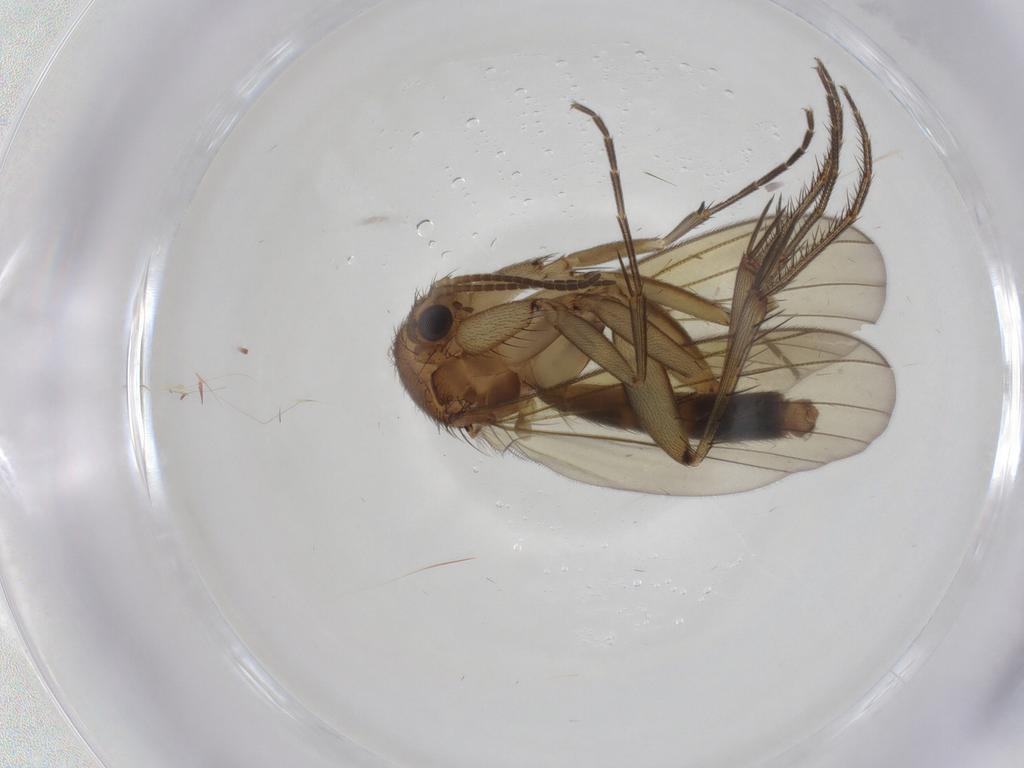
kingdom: Animalia
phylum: Arthropoda
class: Insecta
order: Diptera
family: Mycetophilidae
